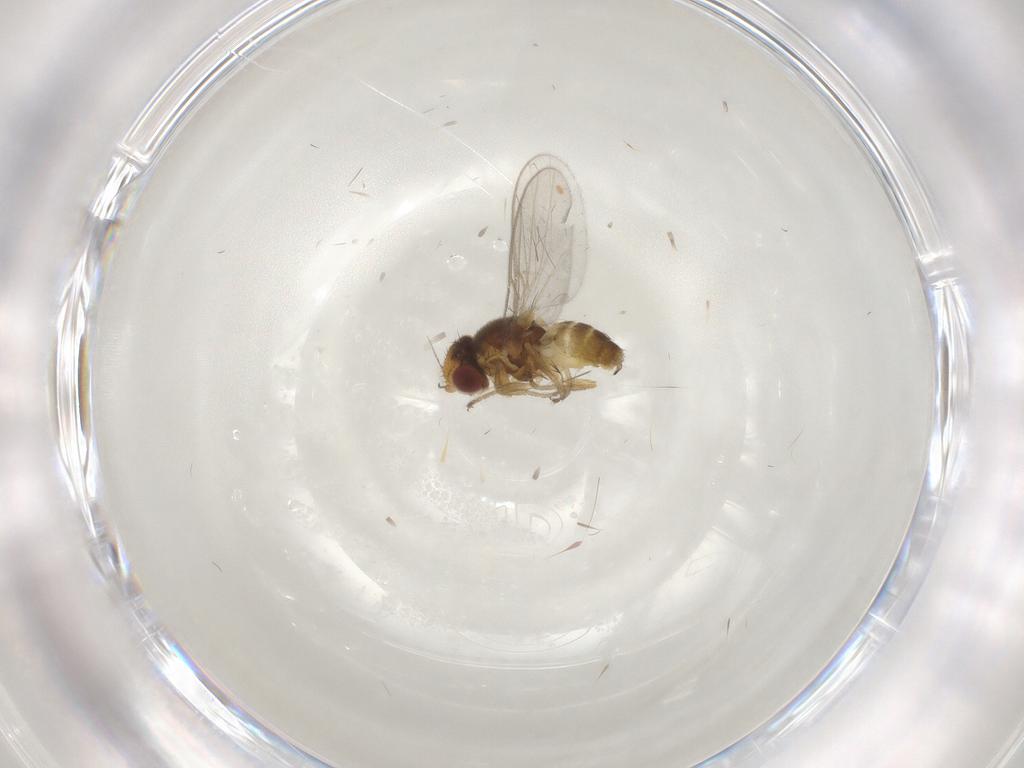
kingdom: Animalia
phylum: Arthropoda
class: Insecta
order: Diptera
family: Chloropidae
